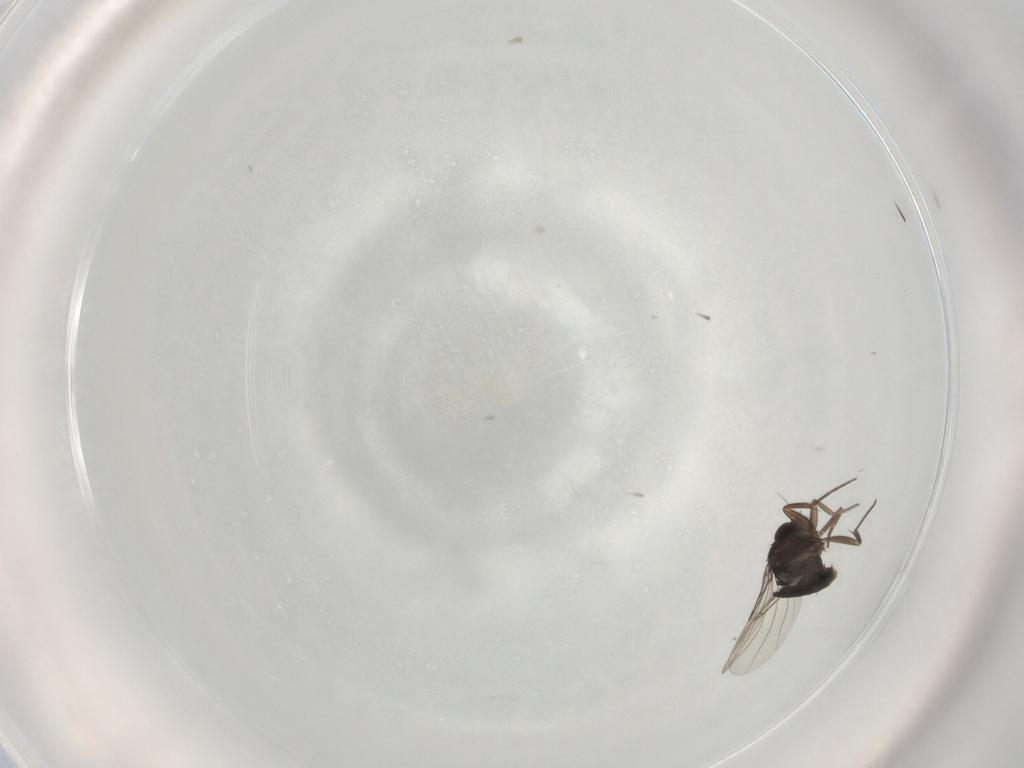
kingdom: Animalia
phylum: Arthropoda
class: Insecta
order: Diptera
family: Phoridae
